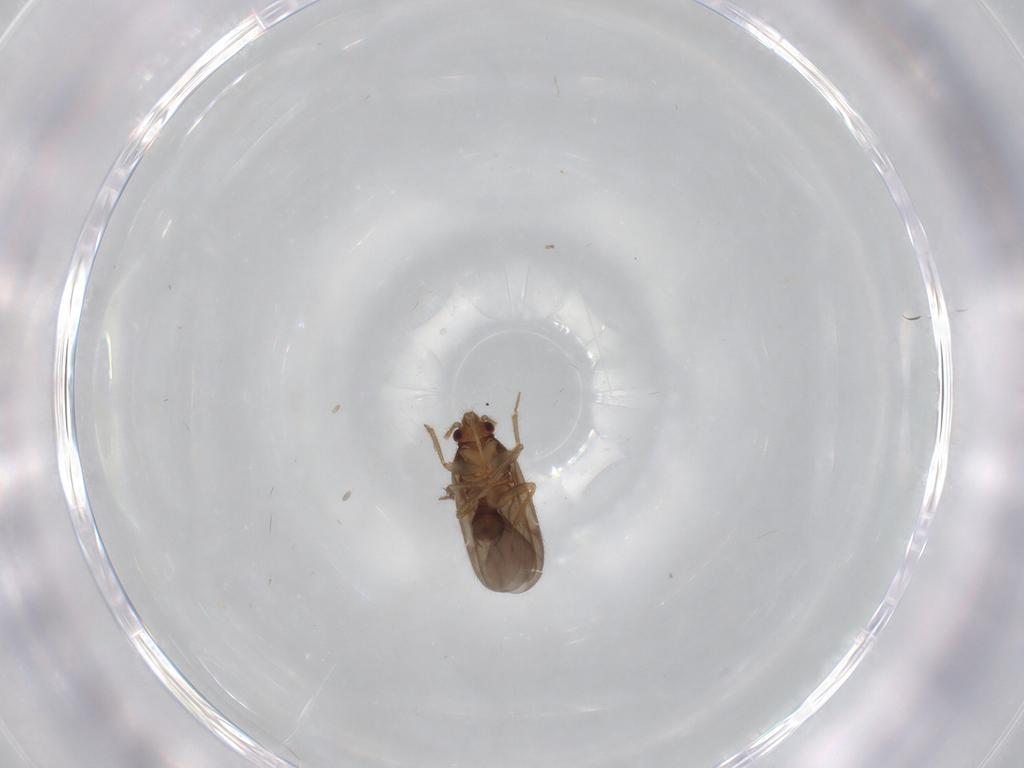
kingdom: Animalia
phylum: Arthropoda
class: Insecta
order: Hemiptera
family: Ceratocombidae
